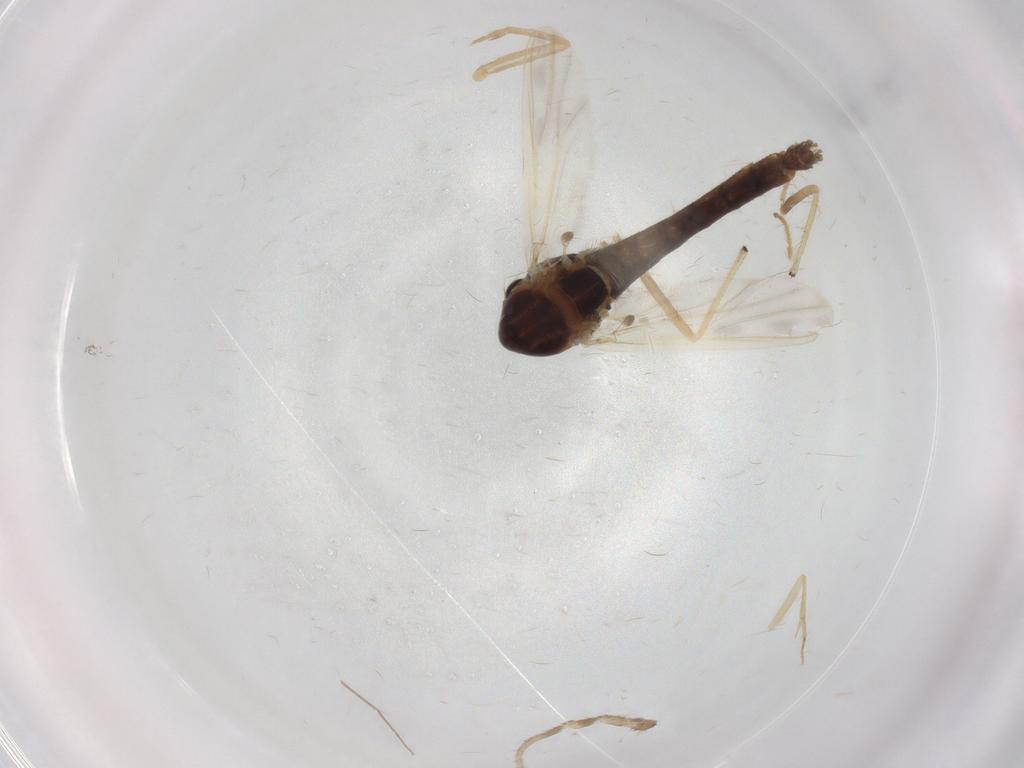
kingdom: Animalia
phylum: Arthropoda
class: Insecta
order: Diptera
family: Chironomidae
